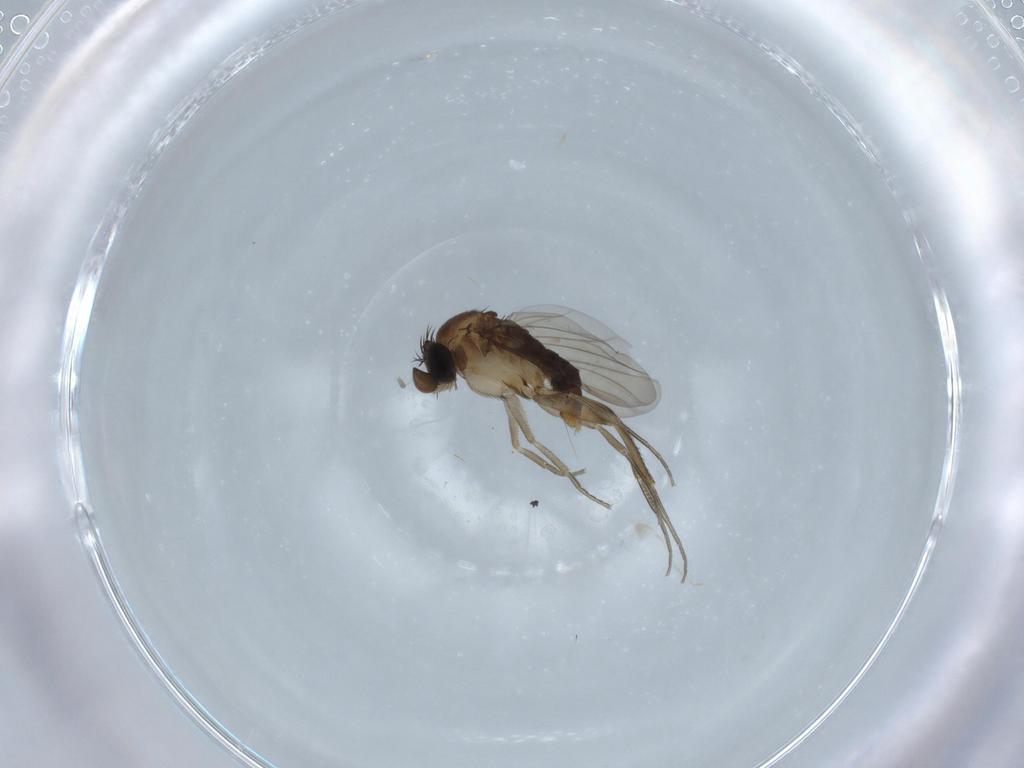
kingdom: Animalia
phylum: Arthropoda
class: Insecta
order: Diptera
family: Phoridae
